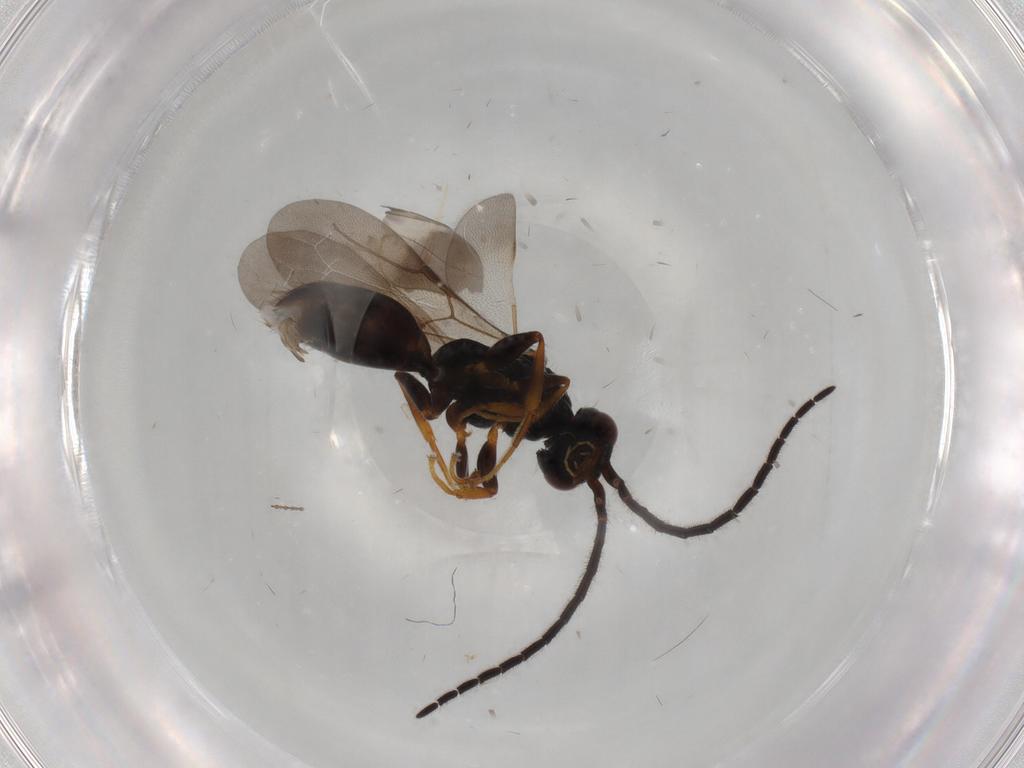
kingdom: Animalia
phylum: Arthropoda
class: Insecta
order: Hymenoptera
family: Bethylidae
